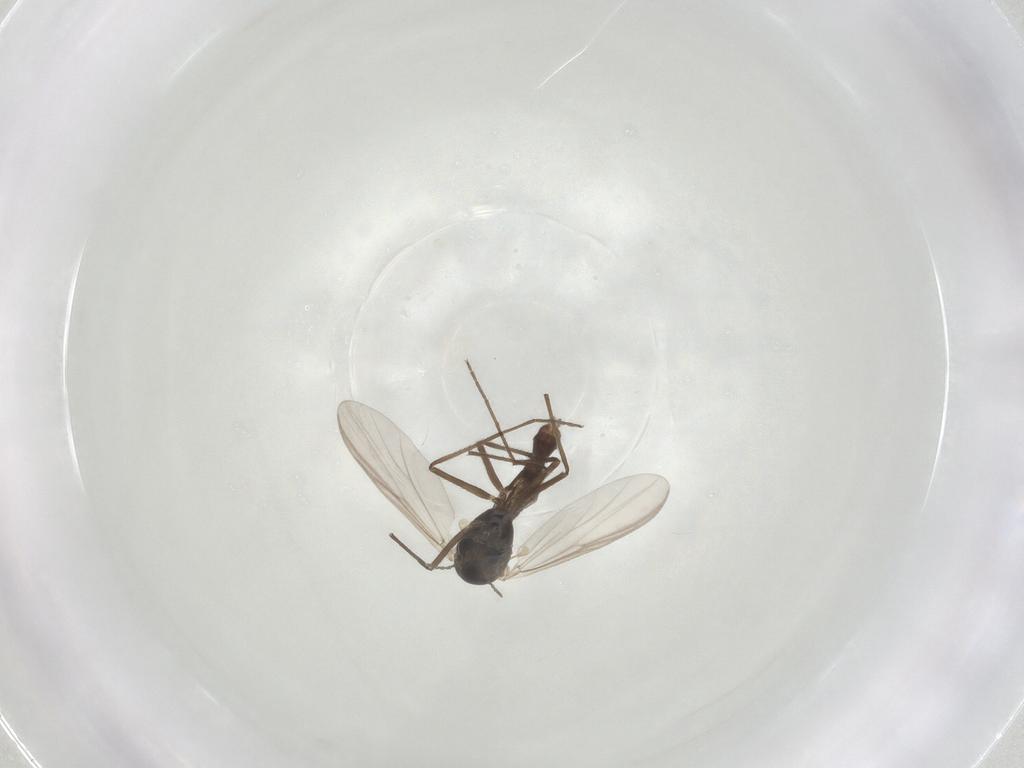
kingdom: Animalia
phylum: Arthropoda
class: Insecta
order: Diptera
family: Chironomidae
